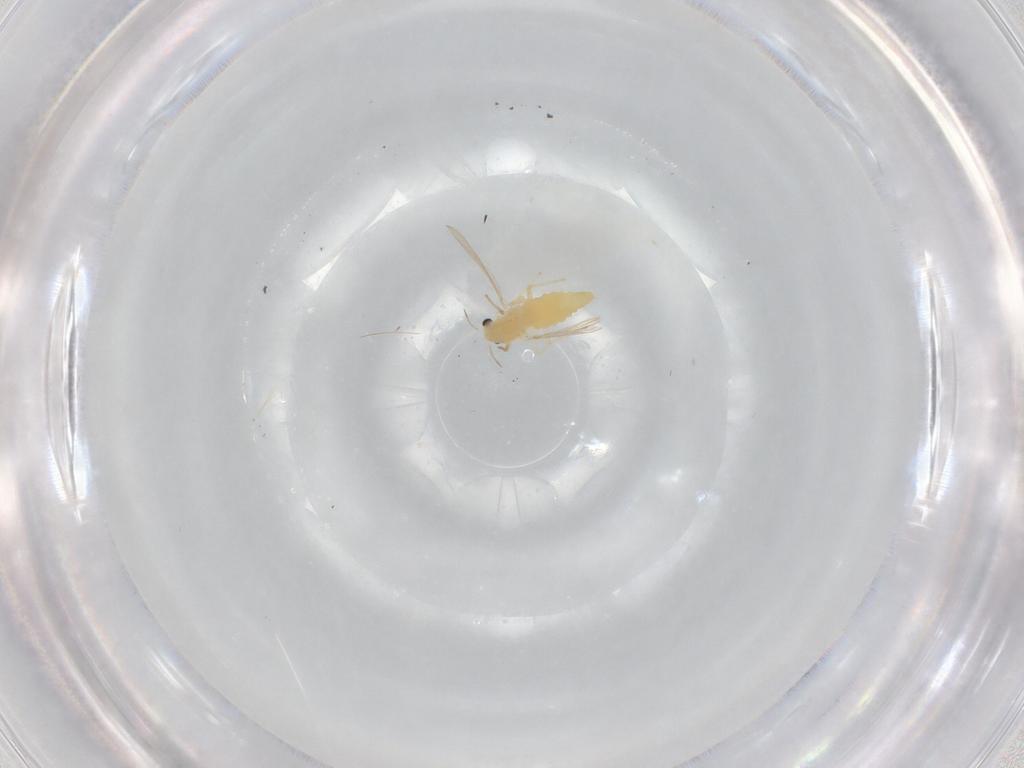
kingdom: Animalia
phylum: Arthropoda
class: Insecta
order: Diptera
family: Chironomidae
